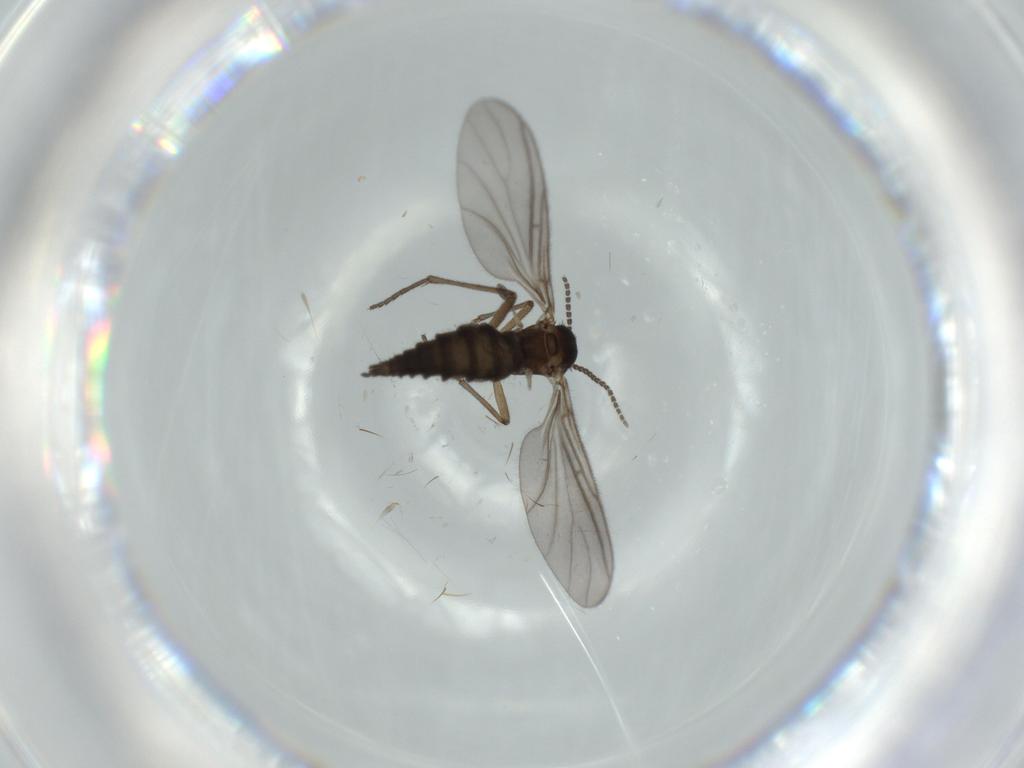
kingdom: Animalia
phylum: Arthropoda
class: Insecta
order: Diptera
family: Sciaridae
